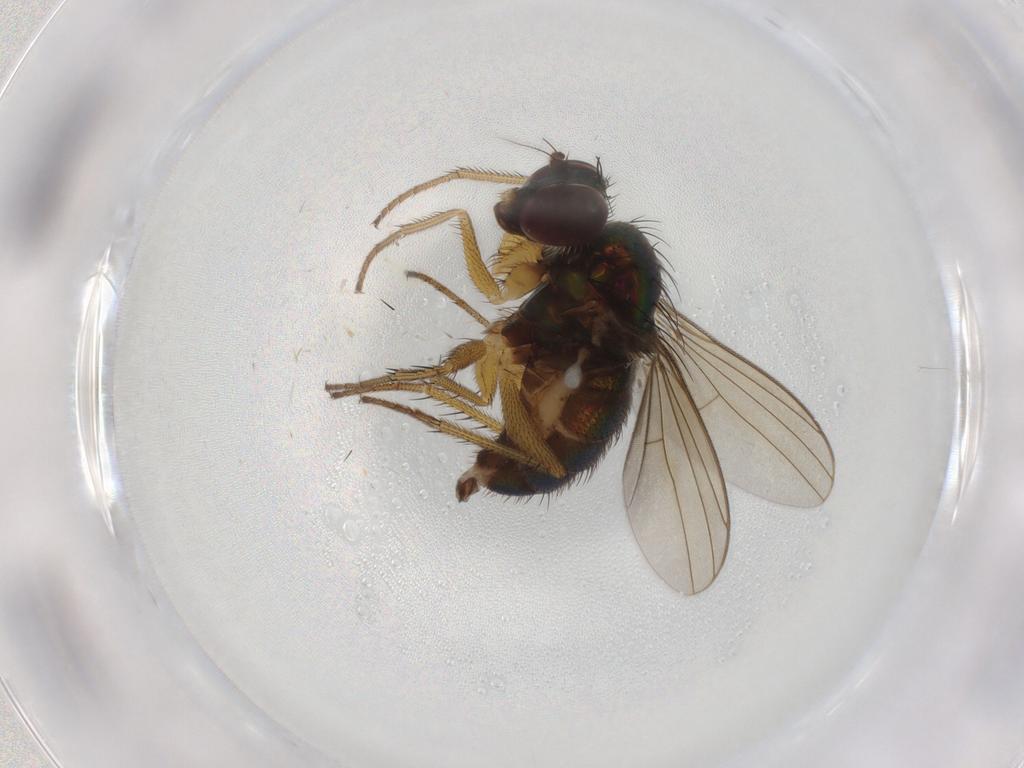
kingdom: Animalia
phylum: Arthropoda
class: Insecta
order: Diptera
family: Dolichopodidae
